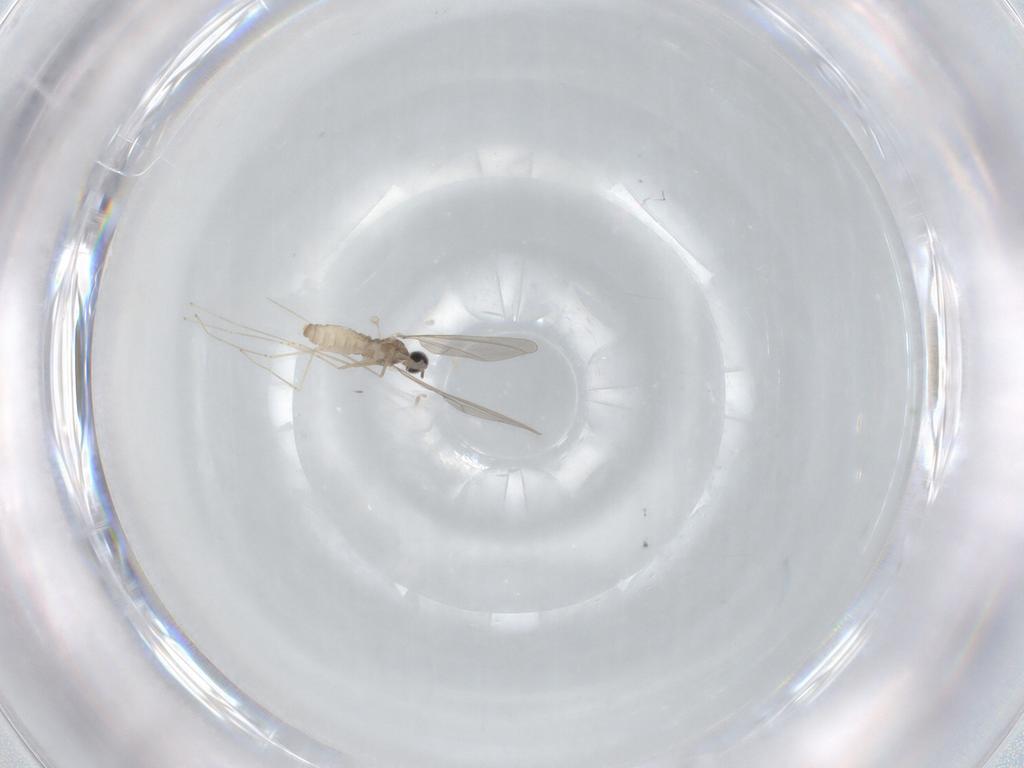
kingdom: Animalia
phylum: Arthropoda
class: Insecta
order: Diptera
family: Cecidomyiidae
